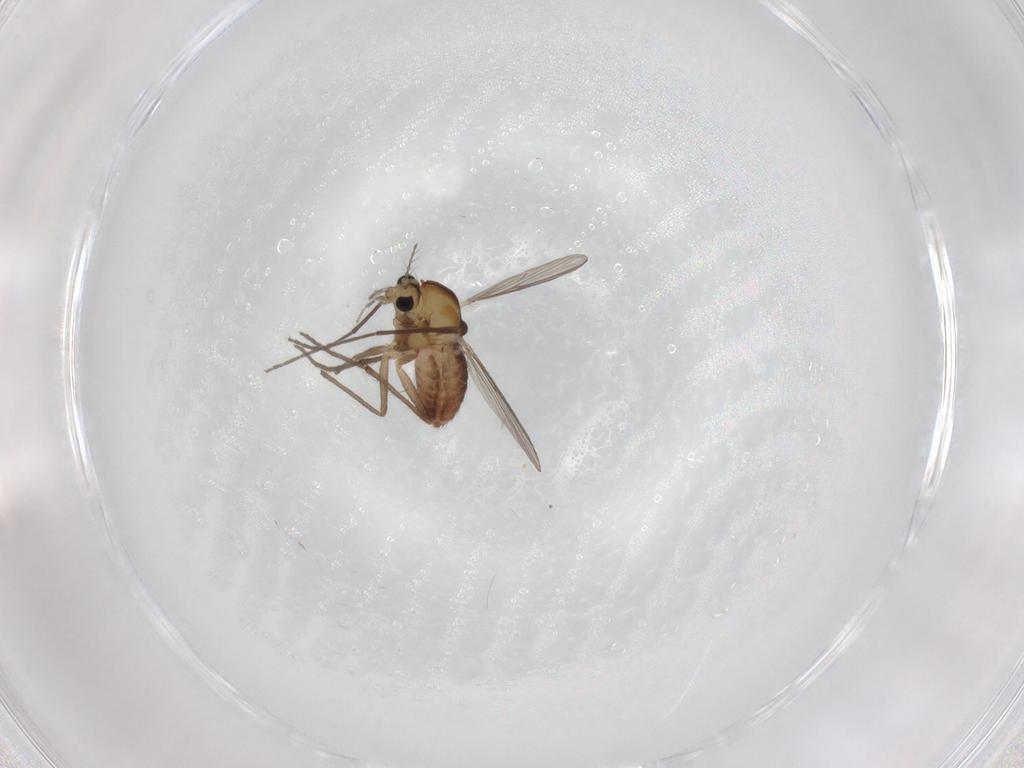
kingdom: Animalia
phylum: Arthropoda
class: Insecta
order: Diptera
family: Chironomidae
